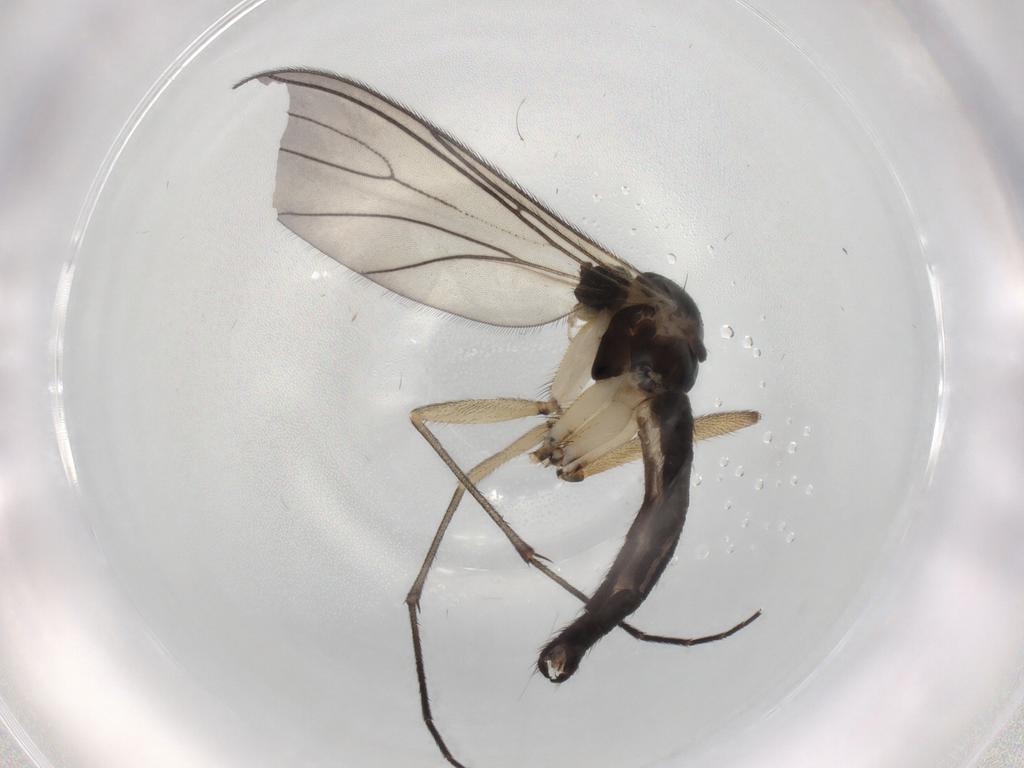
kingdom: Animalia
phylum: Arthropoda
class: Insecta
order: Diptera
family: Sciaridae
